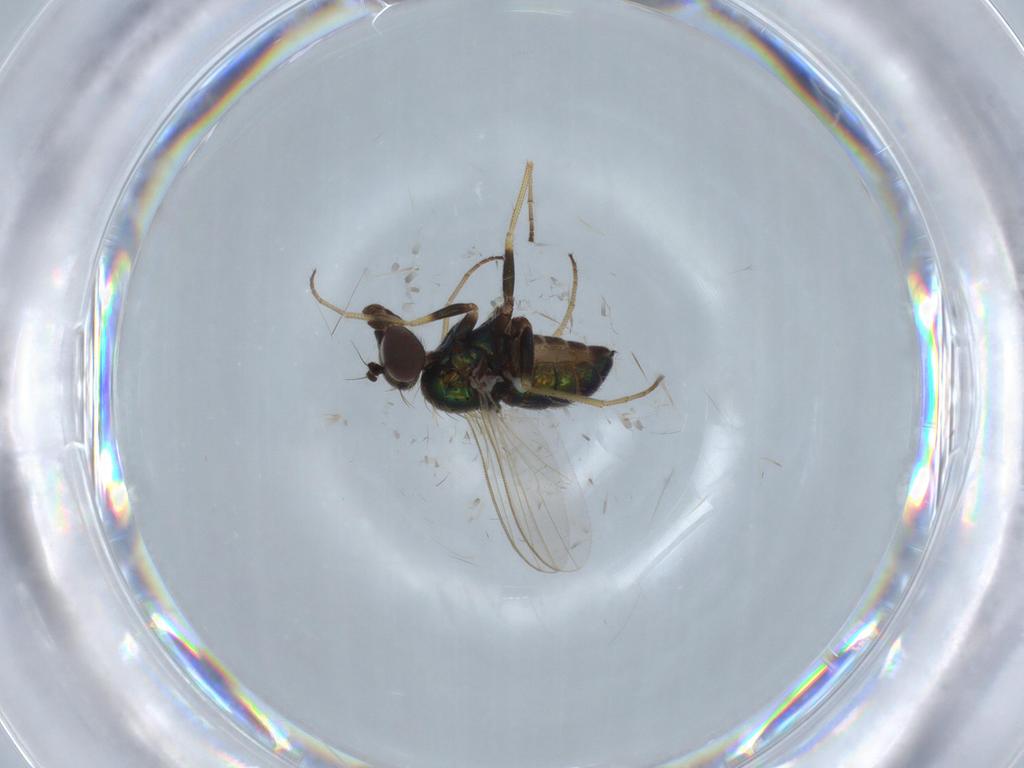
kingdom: Animalia
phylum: Arthropoda
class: Insecta
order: Diptera
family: Dolichopodidae
